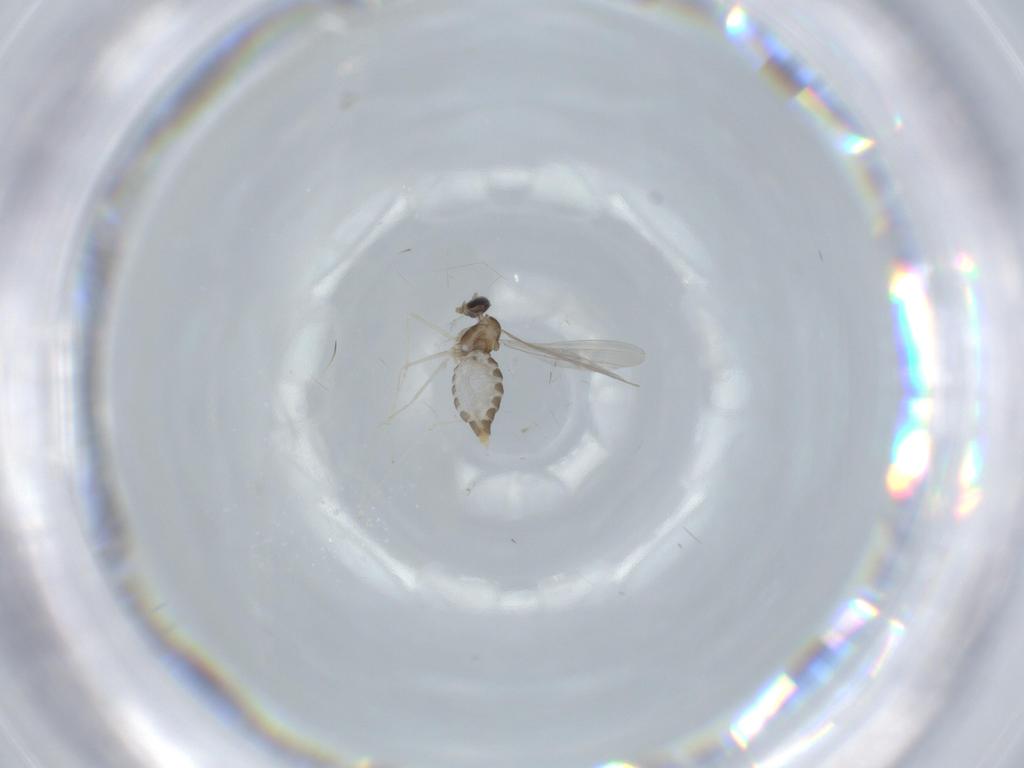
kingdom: Animalia
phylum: Arthropoda
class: Insecta
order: Diptera
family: Cecidomyiidae
